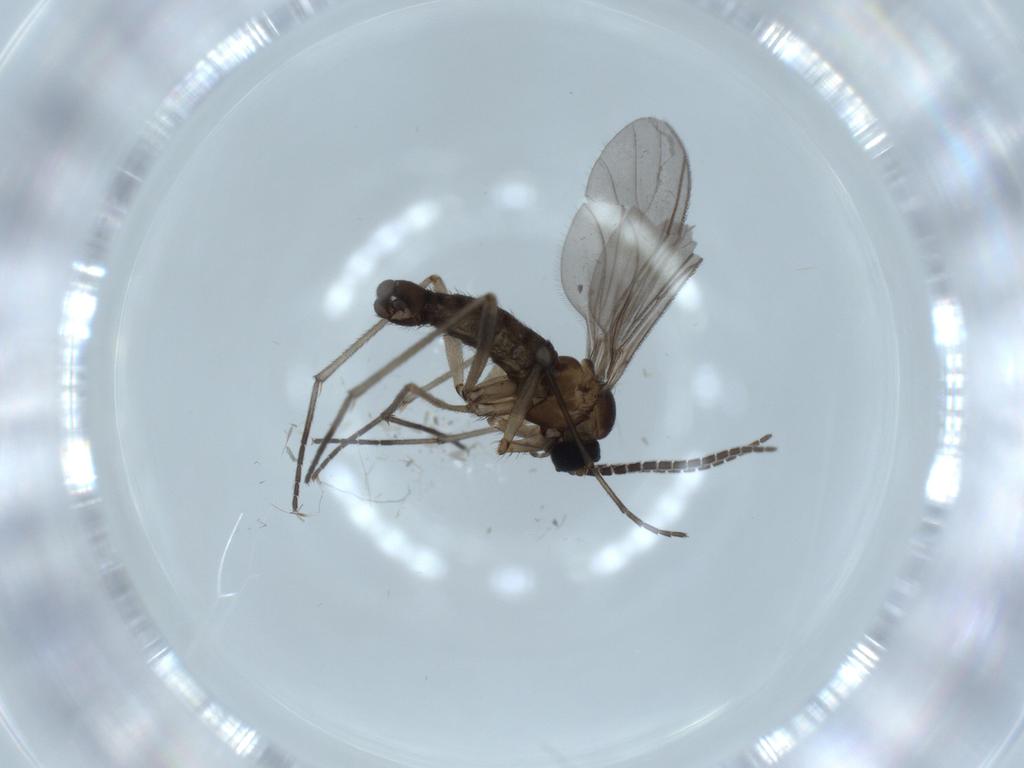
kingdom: Animalia
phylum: Arthropoda
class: Insecta
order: Diptera
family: Sciaridae
